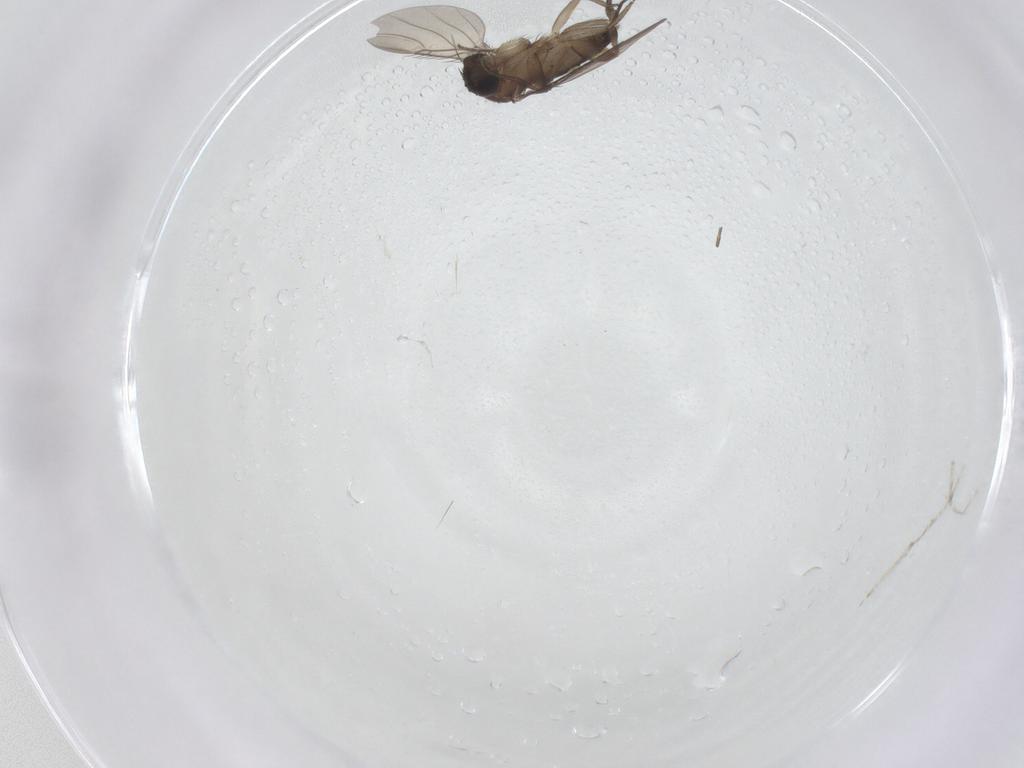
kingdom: Animalia
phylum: Arthropoda
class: Insecta
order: Diptera
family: Phoridae
